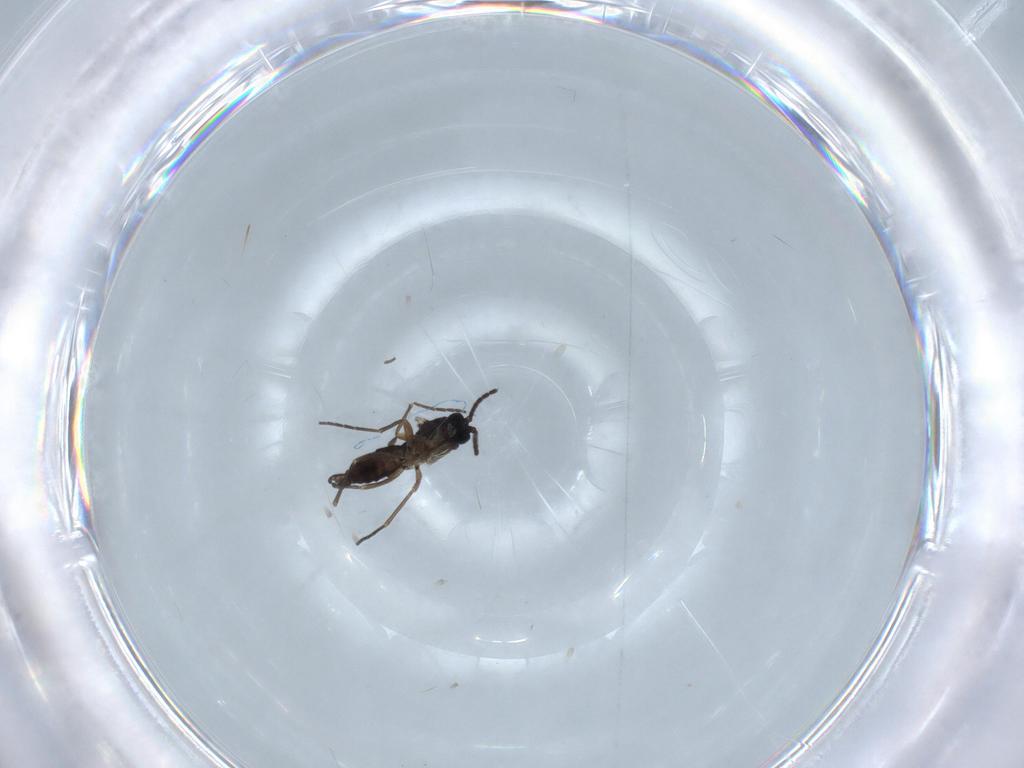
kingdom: Animalia
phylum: Arthropoda
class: Insecta
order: Diptera
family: Sciaridae
